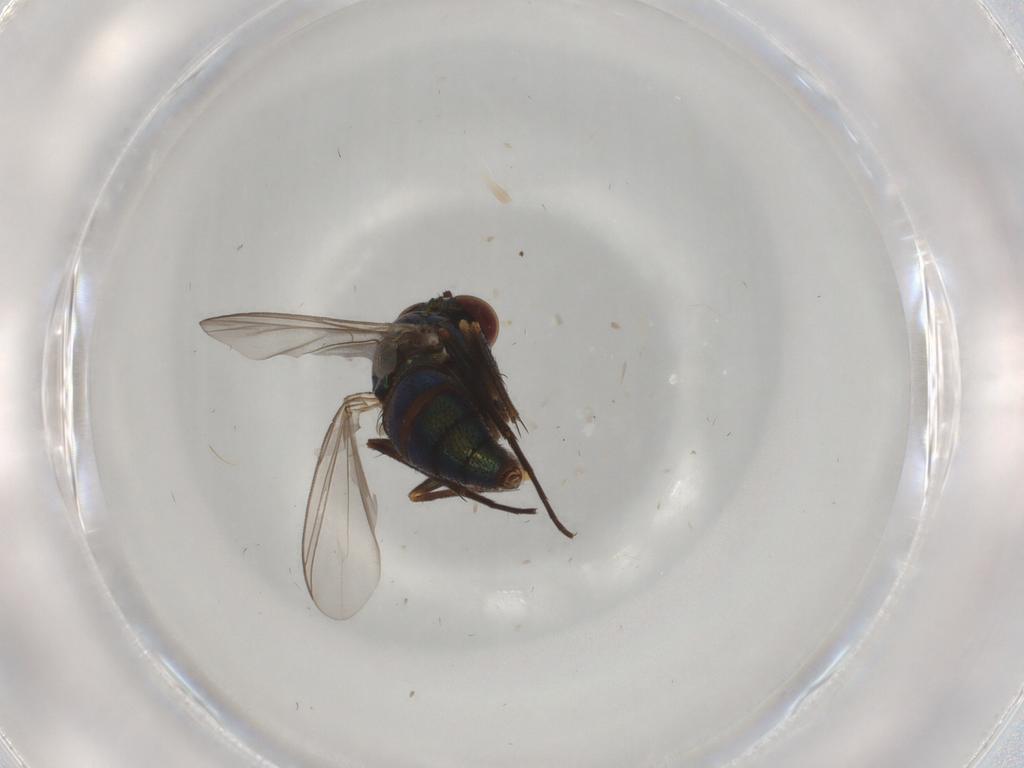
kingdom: Animalia
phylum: Arthropoda
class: Insecta
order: Diptera
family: Dolichopodidae
